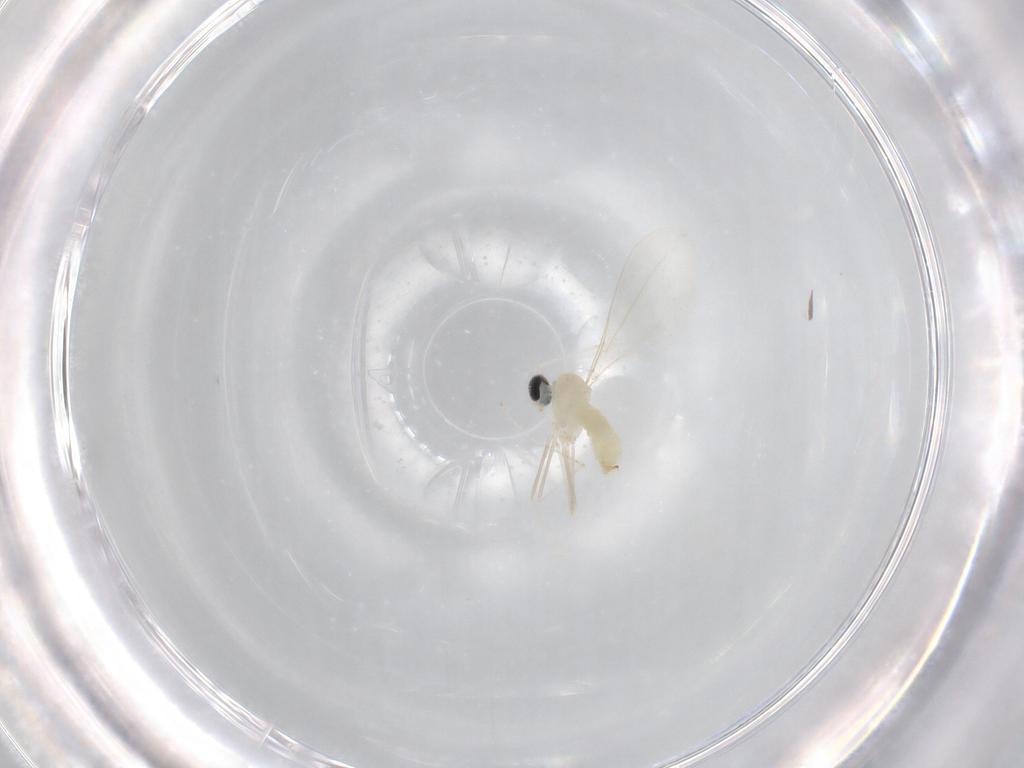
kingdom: Animalia
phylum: Arthropoda
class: Insecta
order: Diptera
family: Cecidomyiidae
